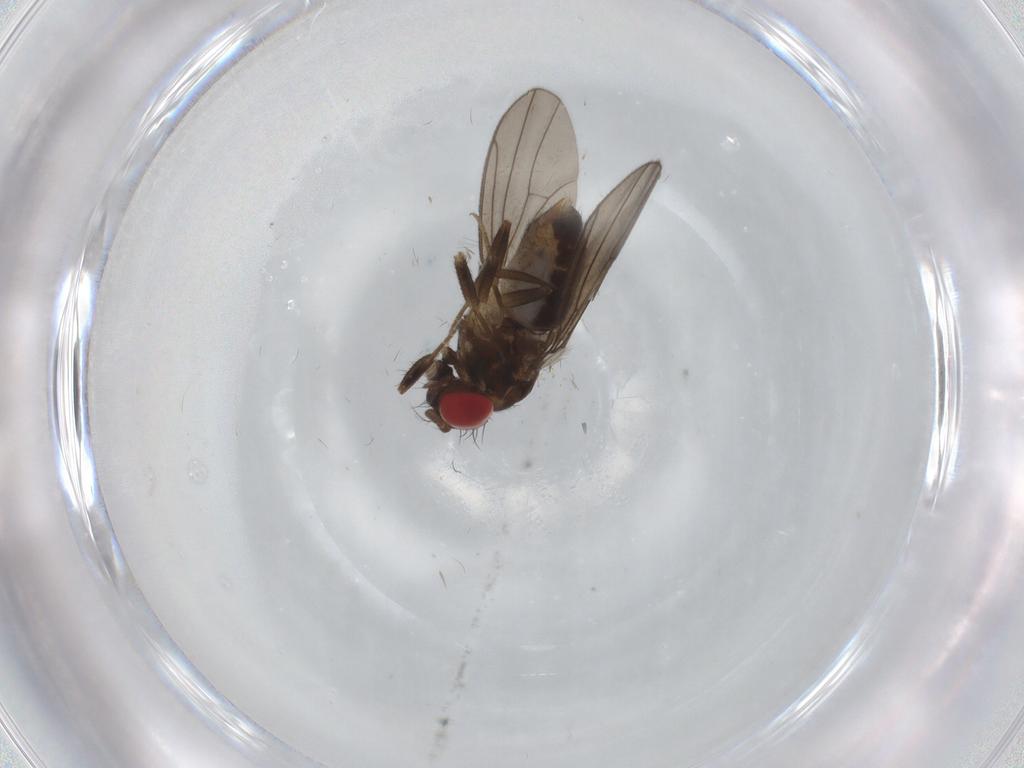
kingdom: Animalia
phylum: Arthropoda
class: Insecta
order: Diptera
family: Drosophilidae
